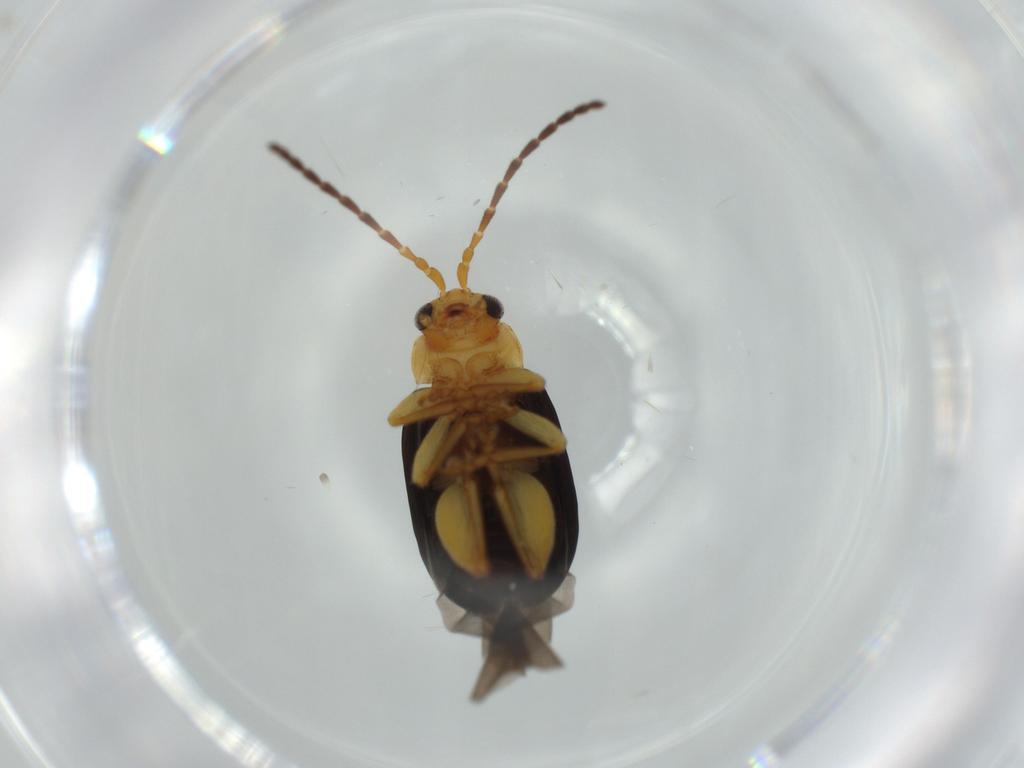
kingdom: Animalia
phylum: Arthropoda
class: Insecta
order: Coleoptera
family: Chrysomelidae
